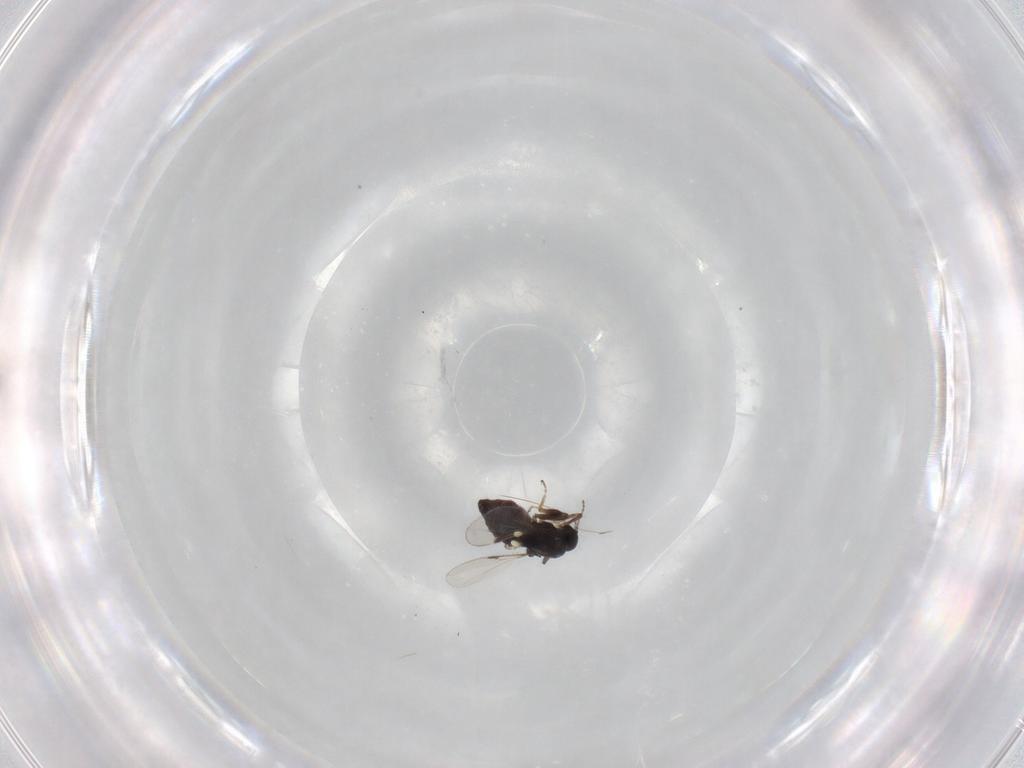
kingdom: Animalia
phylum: Arthropoda
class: Insecta
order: Diptera
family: Ceratopogonidae
